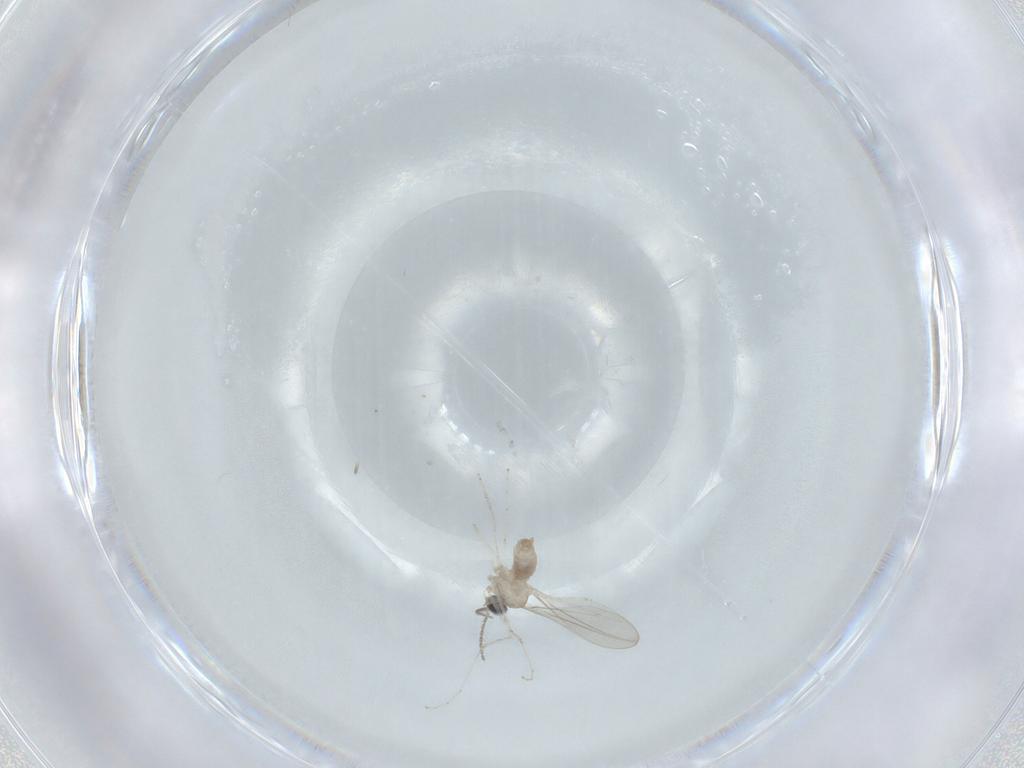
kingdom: Animalia
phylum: Arthropoda
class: Insecta
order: Diptera
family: Cecidomyiidae
